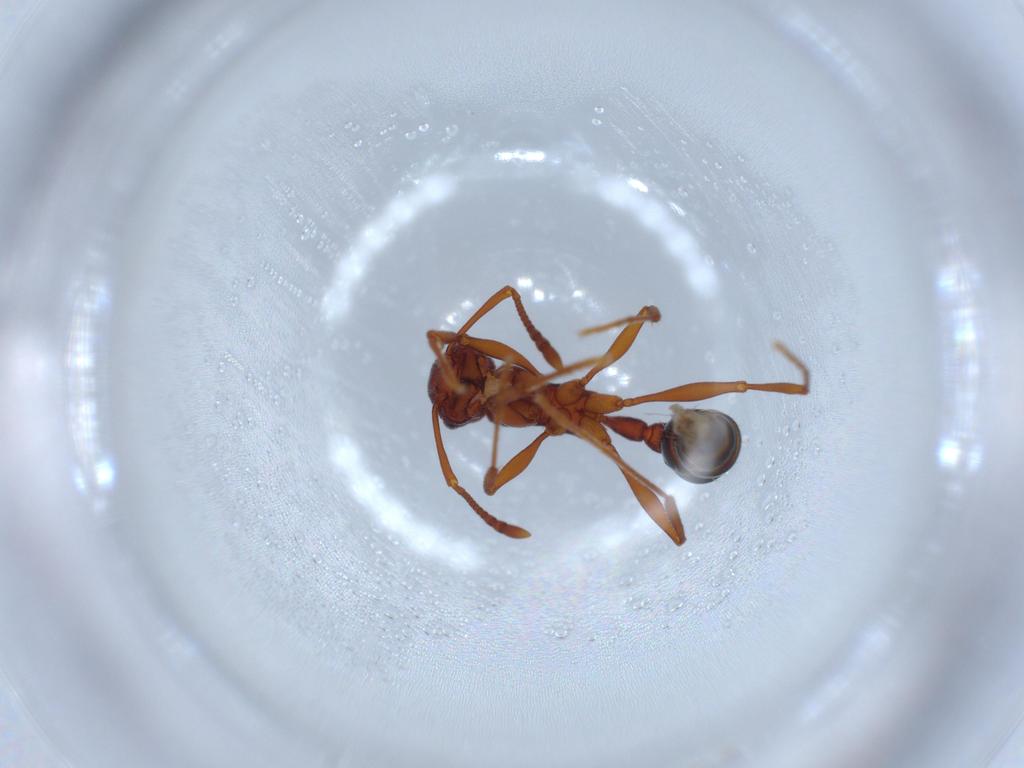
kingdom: Animalia
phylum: Arthropoda
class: Insecta
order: Hymenoptera
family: Formicidae
